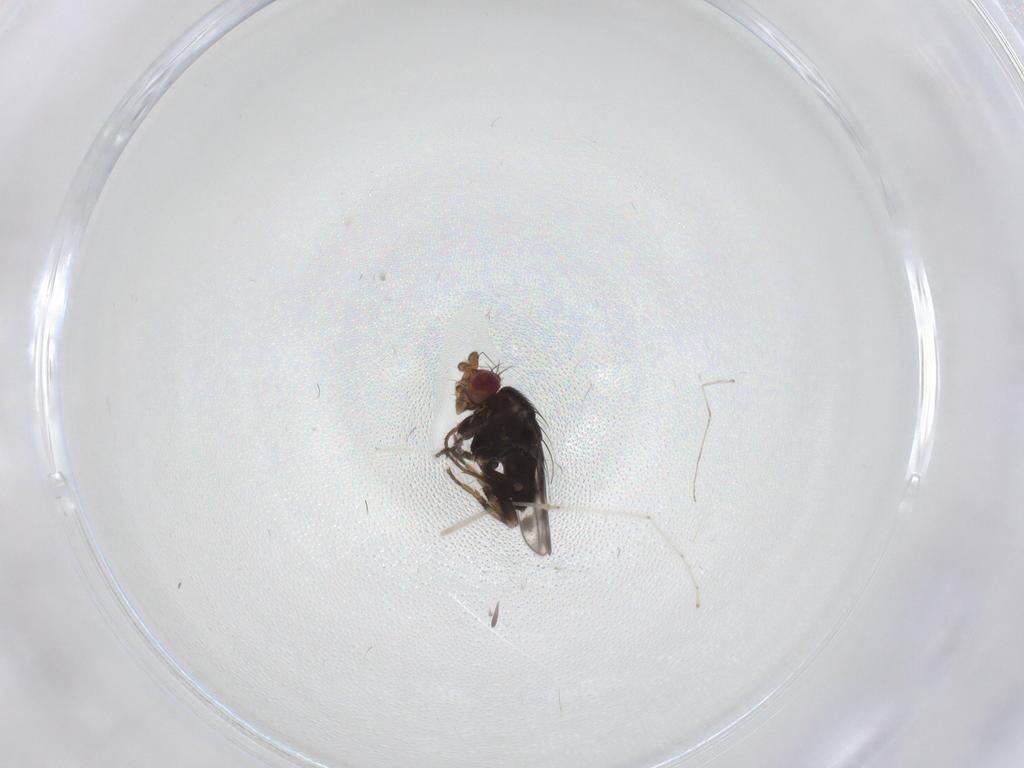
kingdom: Animalia
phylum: Arthropoda
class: Insecta
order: Diptera
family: Sphaeroceridae
